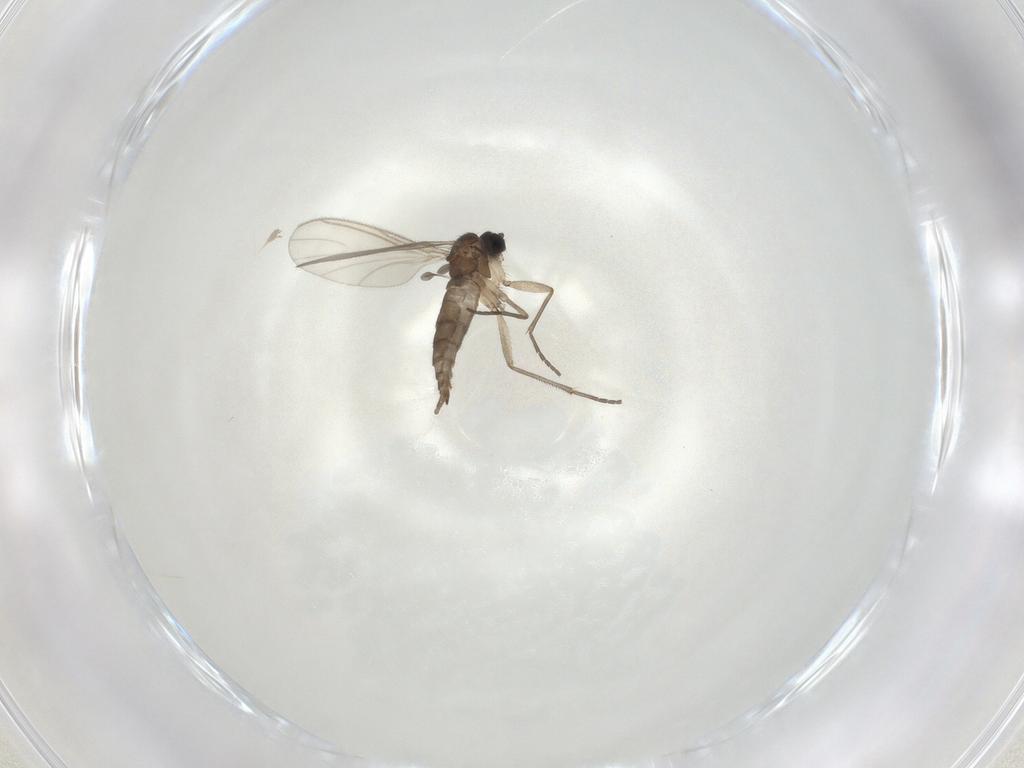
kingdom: Animalia
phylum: Arthropoda
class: Insecta
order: Diptera
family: Sciaridae
